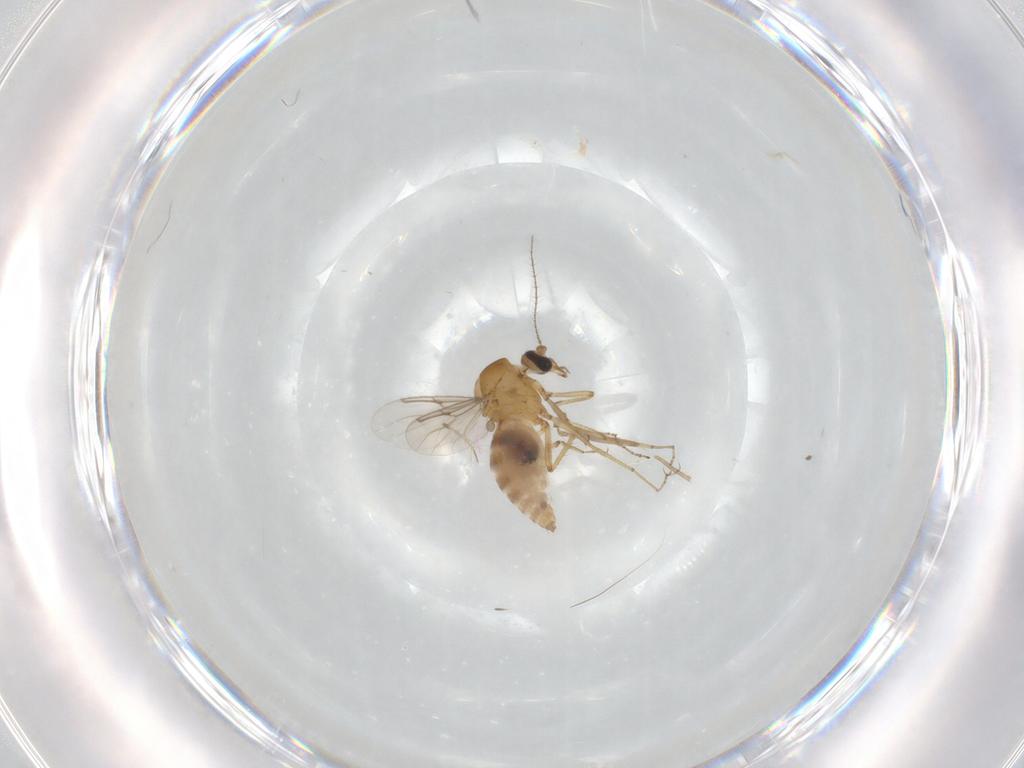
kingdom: Animalia
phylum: Arthropoda
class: Insecta
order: Diptera
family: Ceratopogonidae
